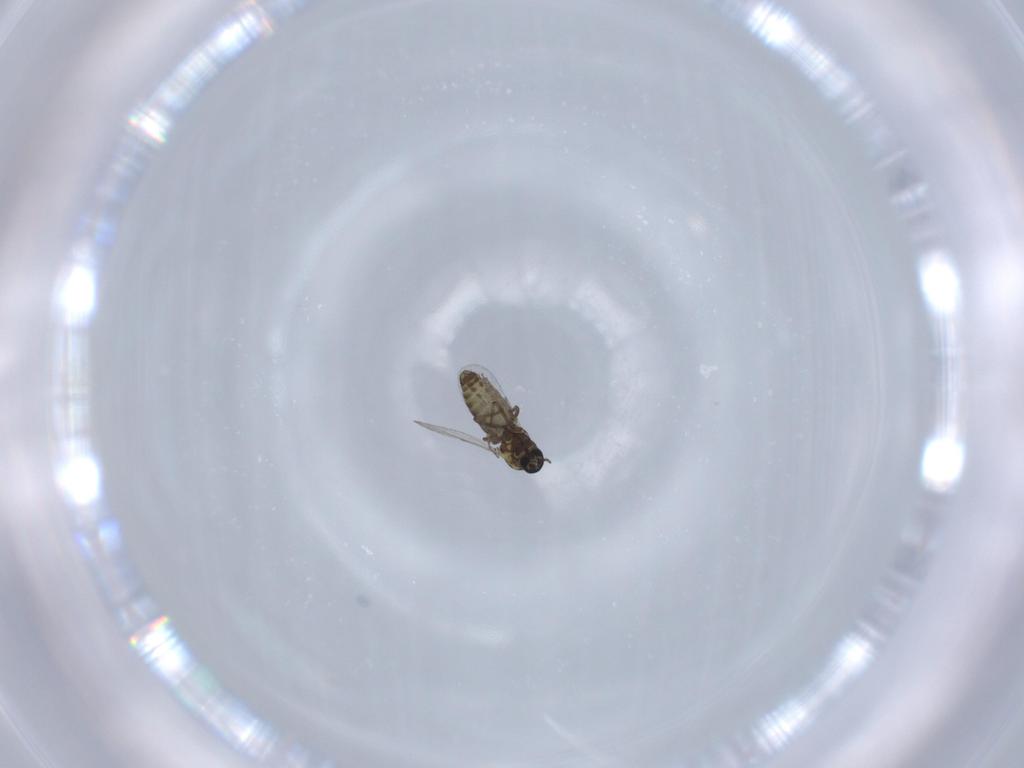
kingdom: Animalia
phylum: Arthropoda
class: Insecta
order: Diptera
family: Ceratopogonidae
